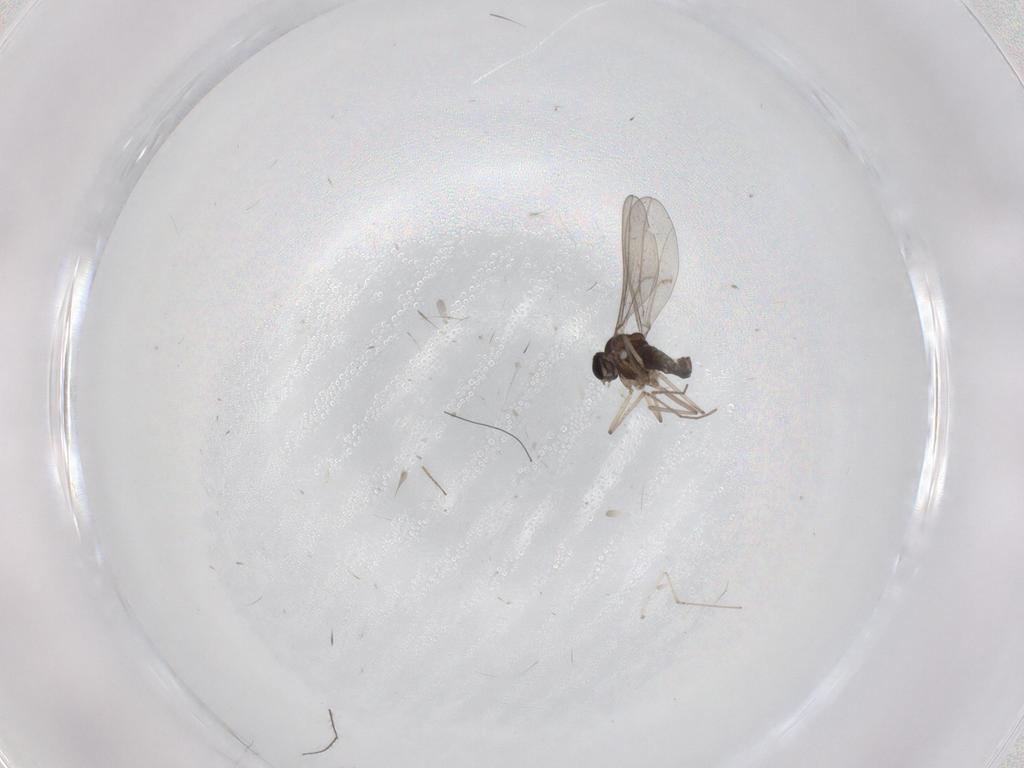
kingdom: Animalia
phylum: Arthropoda
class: Insecta
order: Diptera
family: Cecidomyiidae
